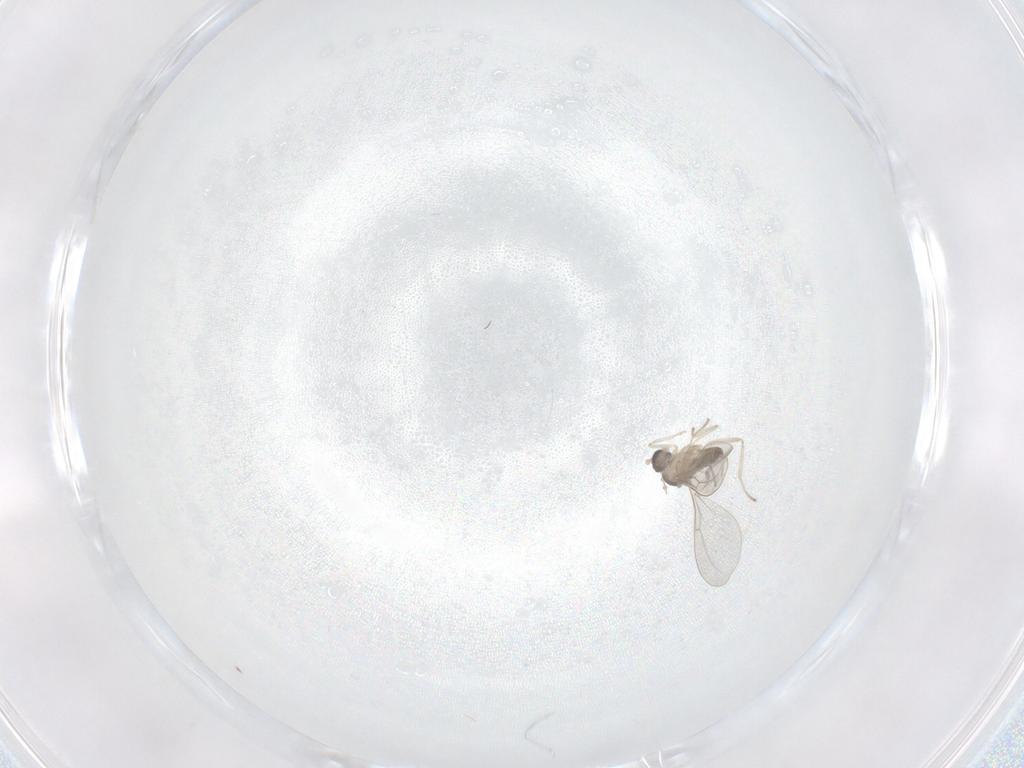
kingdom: Animalia
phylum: Arthropoda
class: Insecta
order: Diptera
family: Cecidomyiidae
